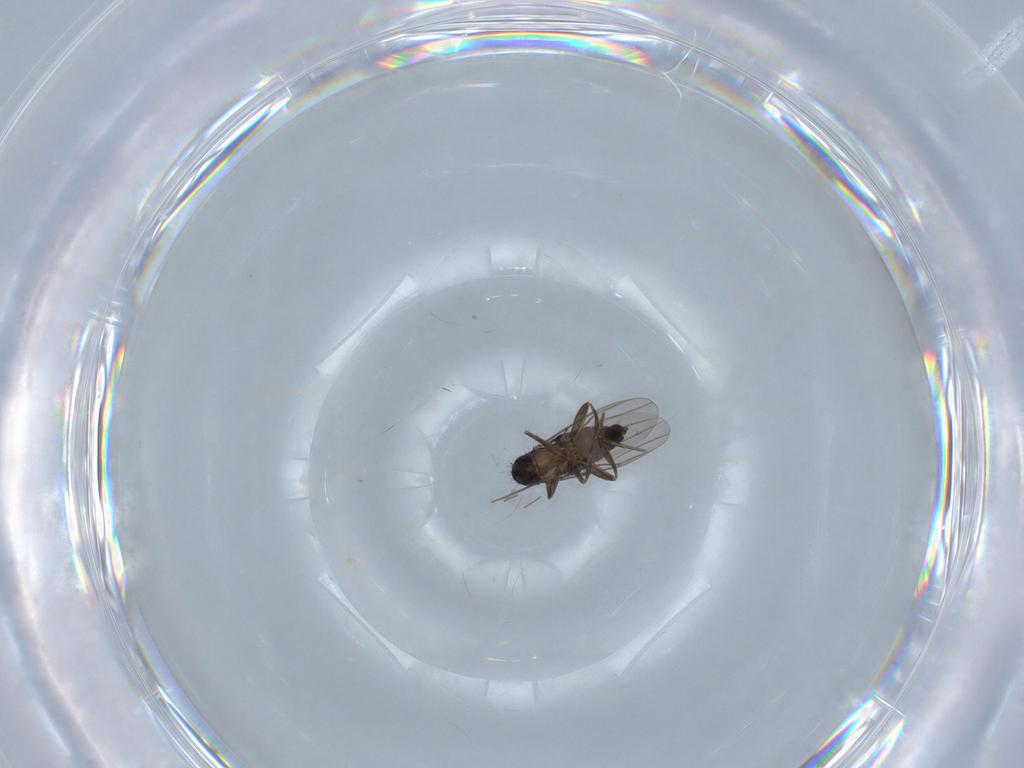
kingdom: Animalia
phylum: Arthropoda
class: Insecta
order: Diptera
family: Phoridae
